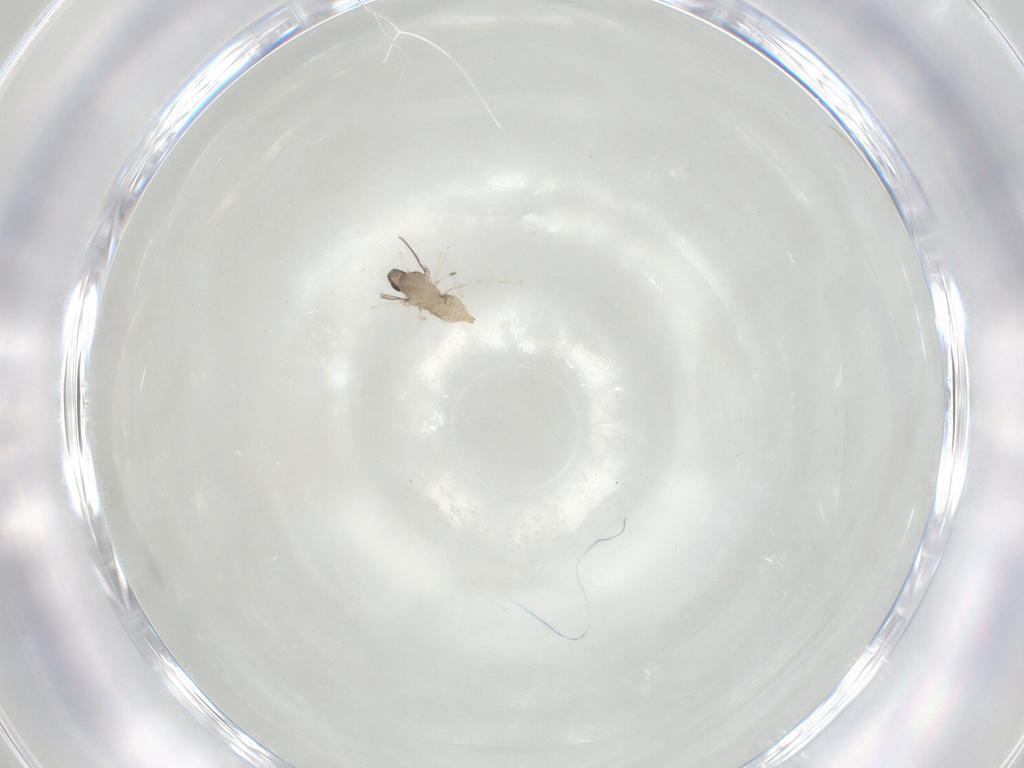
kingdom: Animalia
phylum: Arthropoda
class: Insecta
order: Diptera
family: Cecidomyiidae
